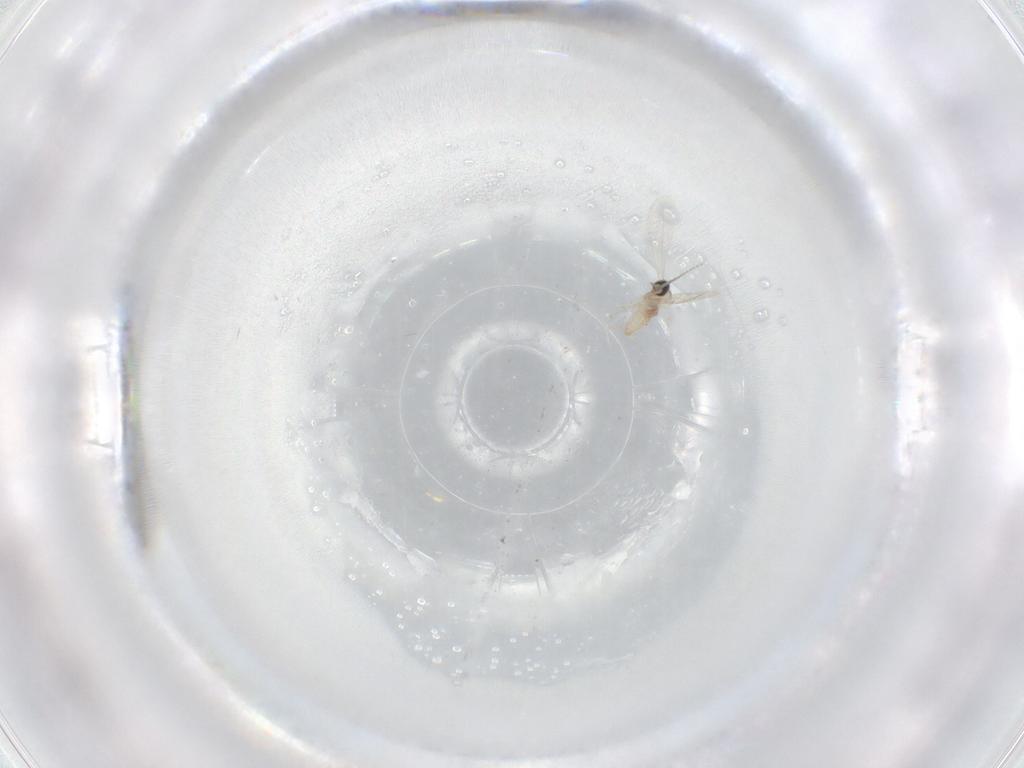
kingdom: Animalia
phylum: Arthropoda
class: Insecta
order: Diptera
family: Cecidomyiidae
